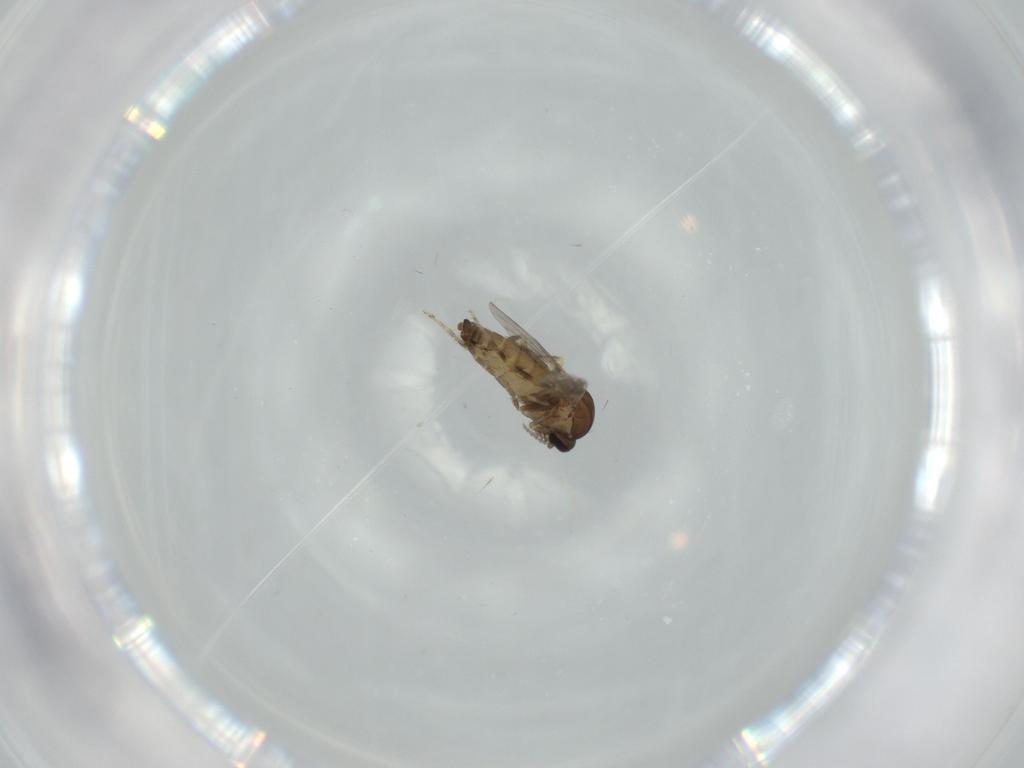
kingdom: Animalia
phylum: Arthropoda
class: Insecta
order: Diptera
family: Ceratopogonidae
